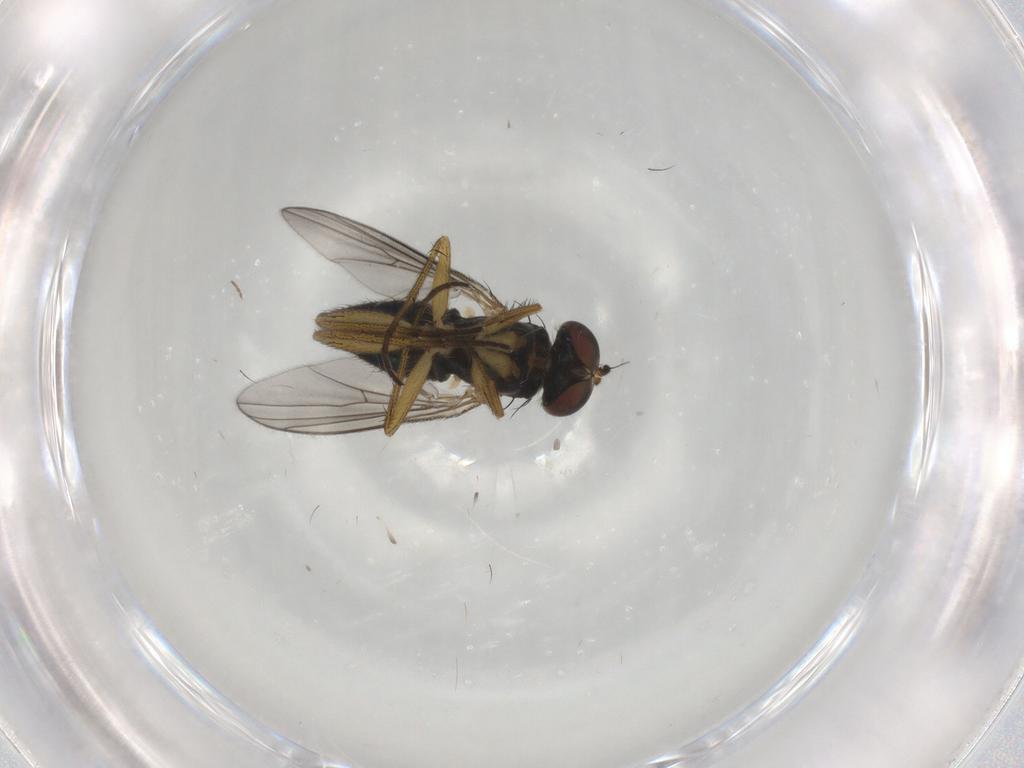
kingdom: Animalia
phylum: Arthropoda
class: Insecta
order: Diptera
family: Dolichopodidae
